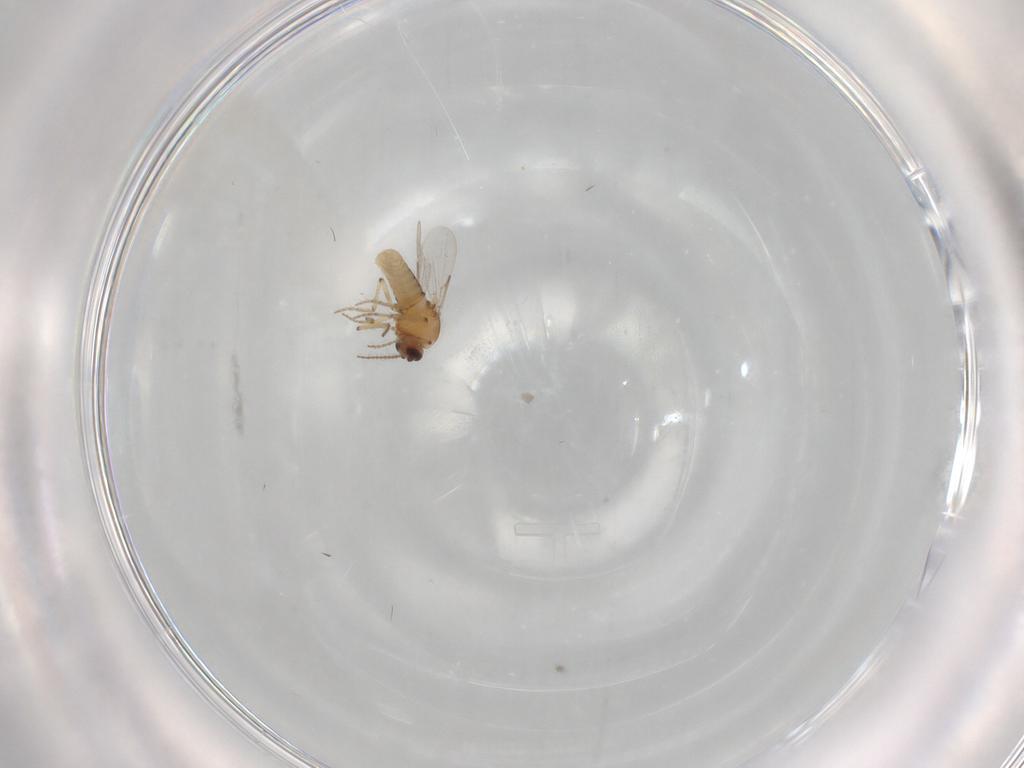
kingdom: Animalia
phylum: Arthropoda
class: Insecta
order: Diptera
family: Ceratopogonidae
